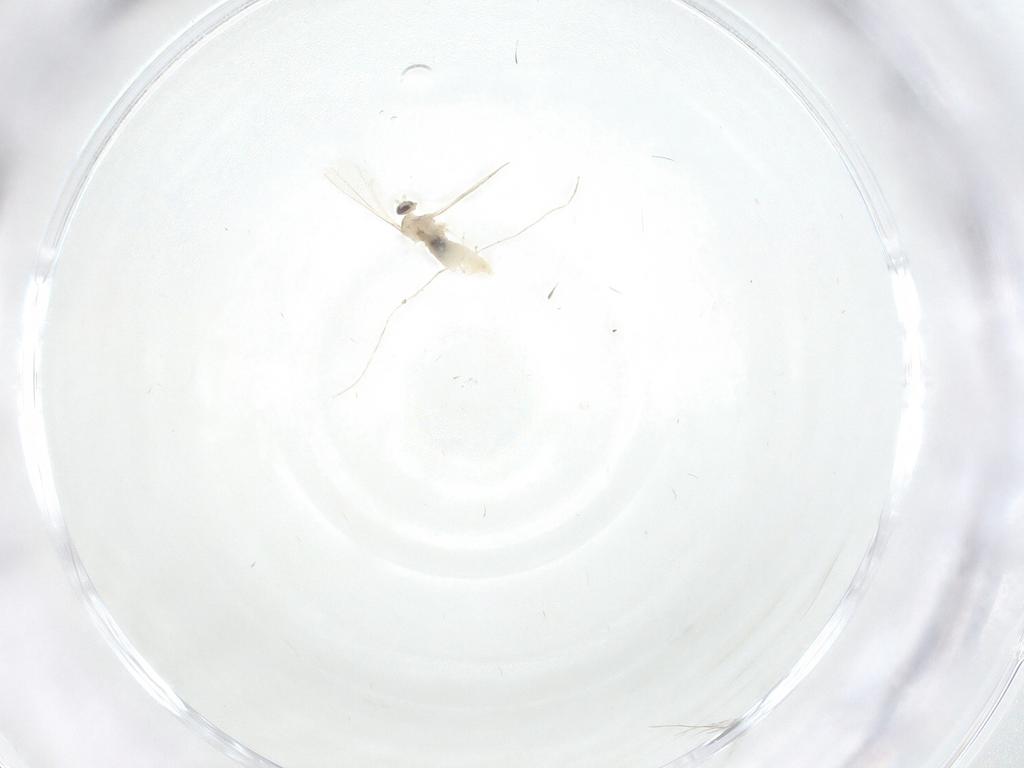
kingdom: Animalia
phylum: Arthropoda
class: Insecta
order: Diptera
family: Cecidomyiidae
